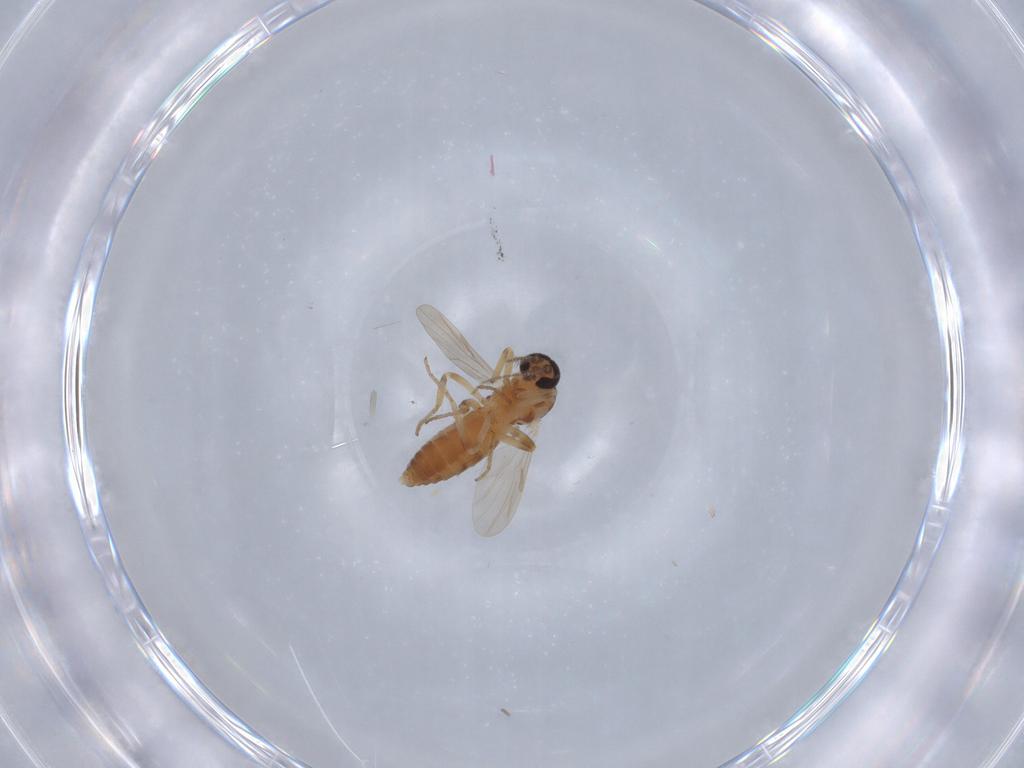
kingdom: Animalia
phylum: Arthropoda
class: Insecta
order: Diptera
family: Ceratopogonidae
